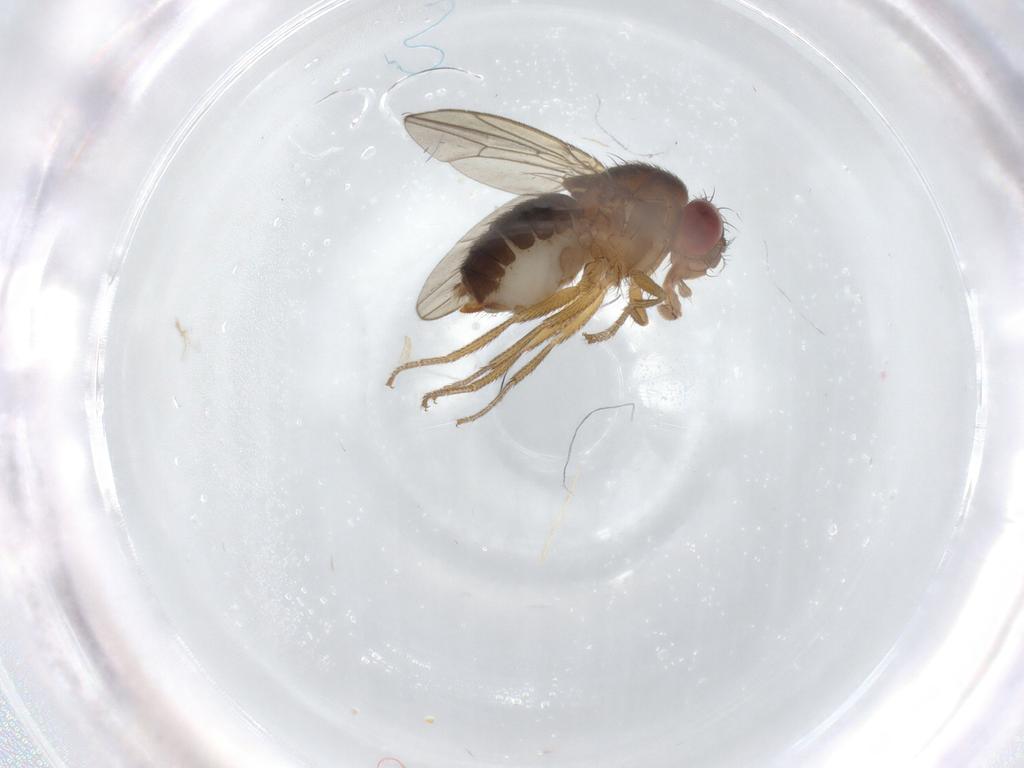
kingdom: Animalia
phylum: Arthropoda
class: Insecta
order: Diptera
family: Drosophilidae
